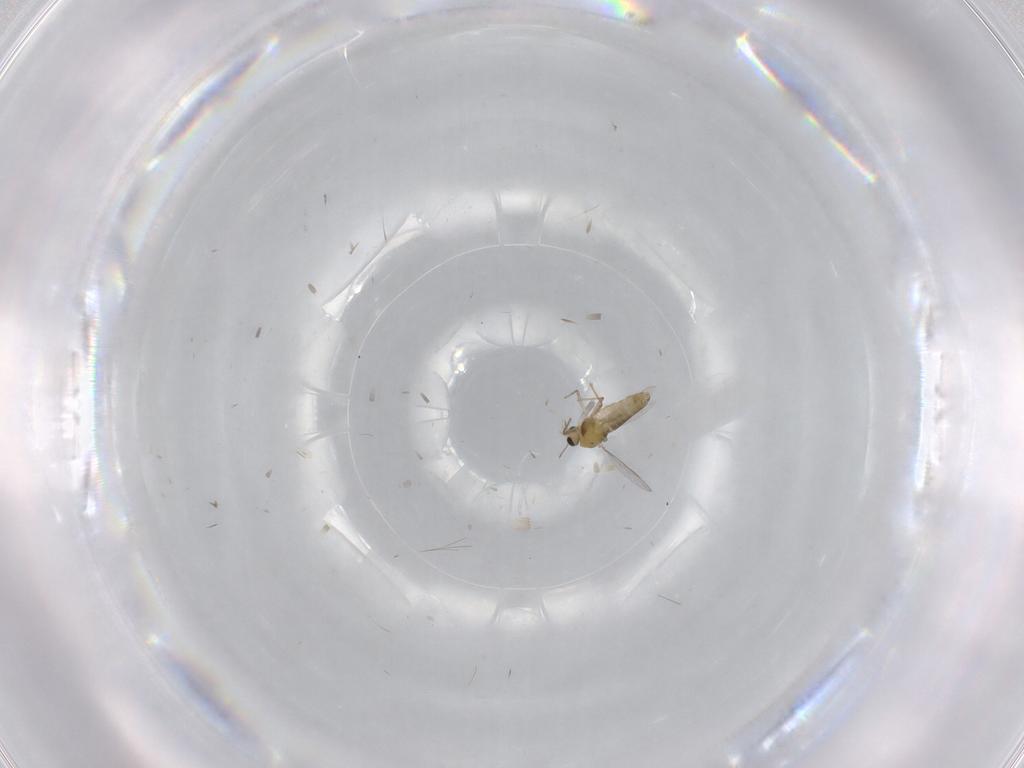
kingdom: Animalia
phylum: Arthropoda
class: Insecta
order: Diptera
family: Chironomidae
